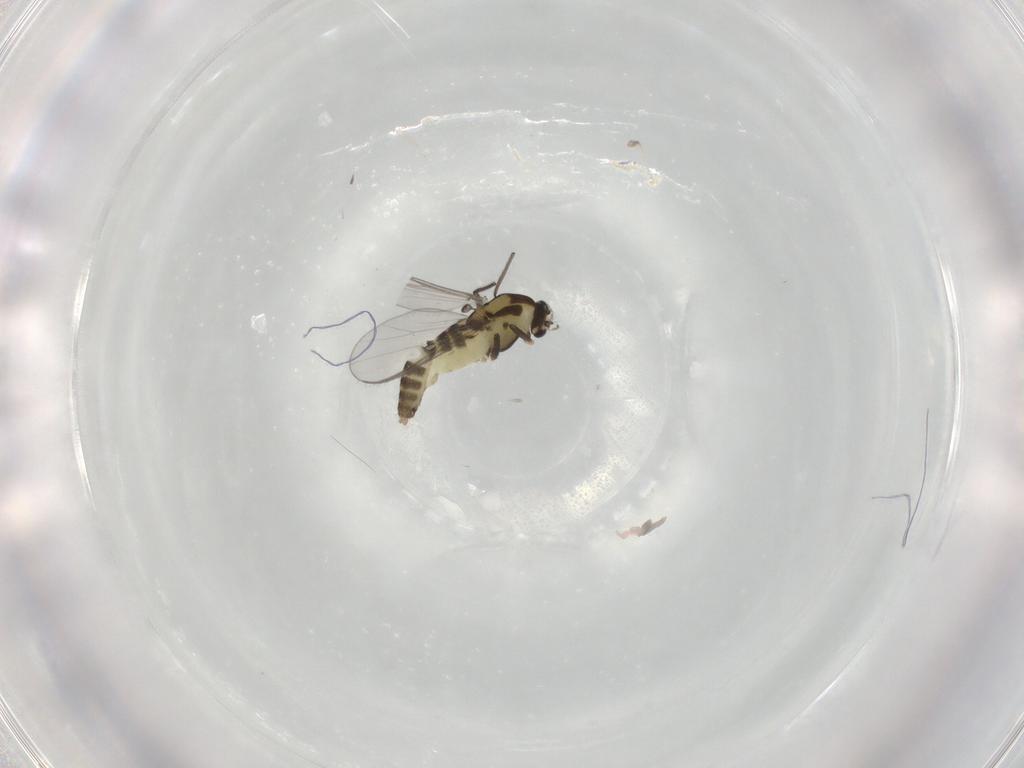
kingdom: Animalia
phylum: Arthropoda
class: Insecta
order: Diptera
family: Chironomidae
